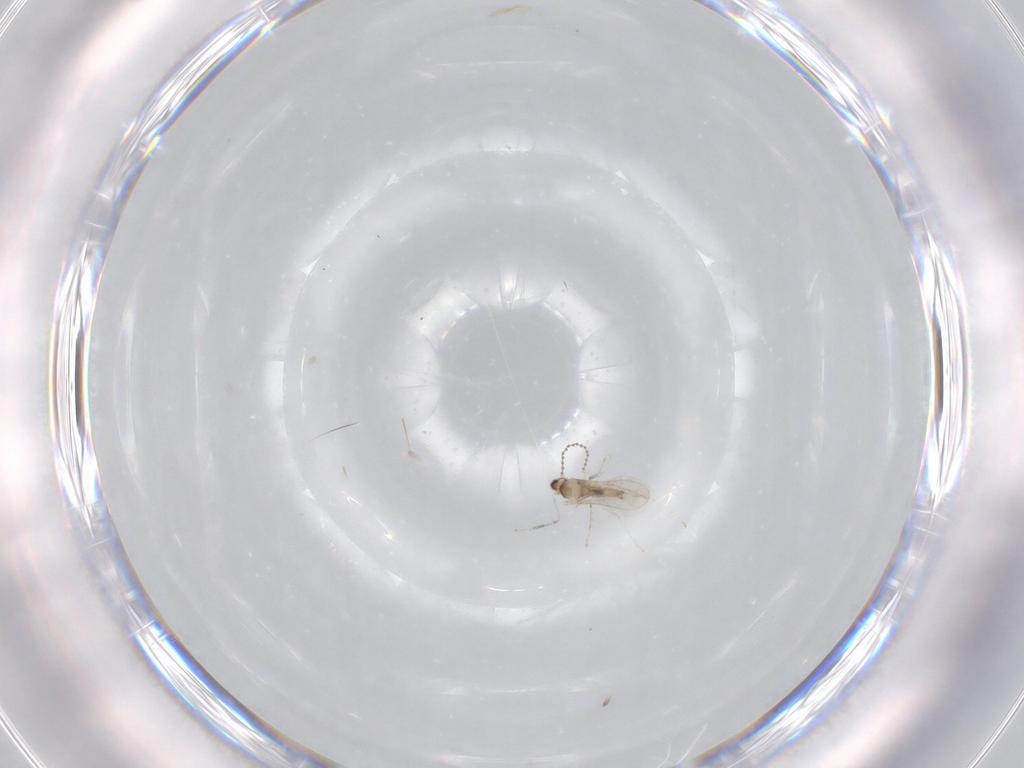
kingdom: Animalia
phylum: Arthropoda
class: Insecta
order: Diptera
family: Cecidomyiidae
